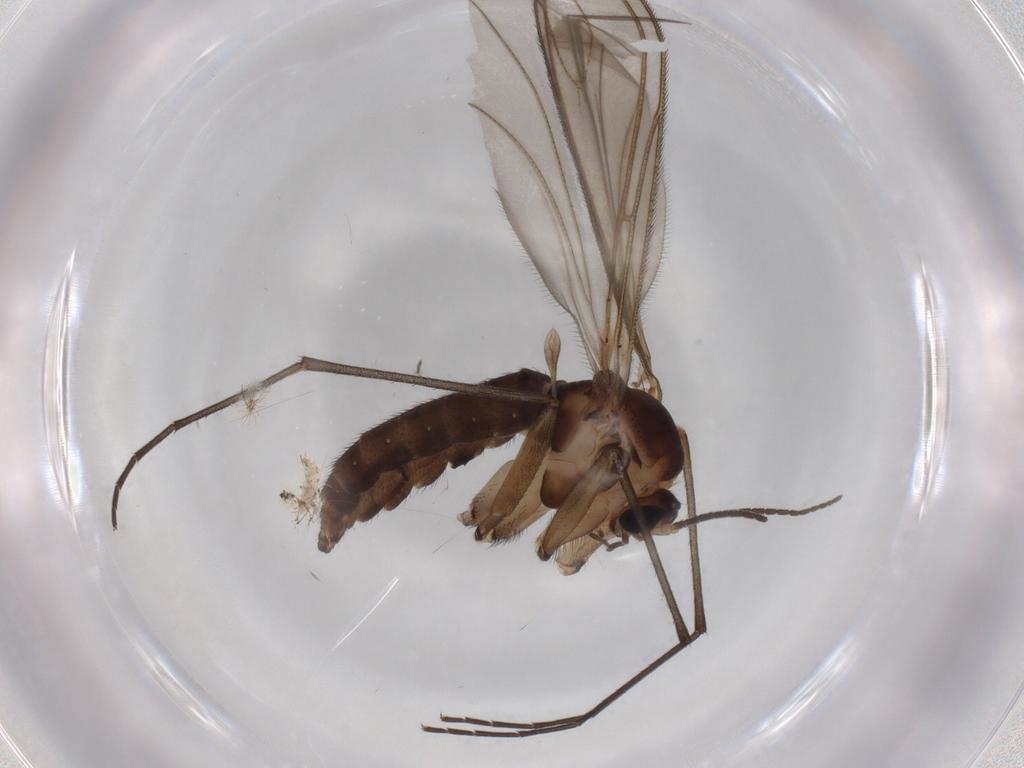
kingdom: Animalia
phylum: Arthropoda
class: Insecta
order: Diptera
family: Sciaridae
